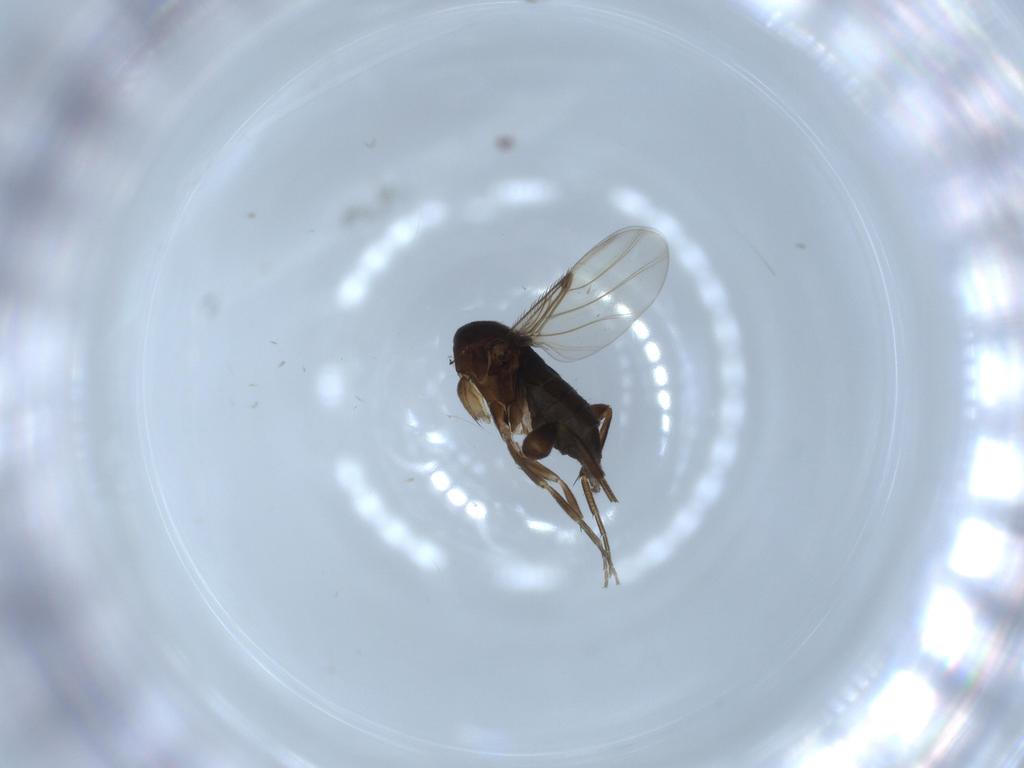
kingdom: Animalia
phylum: Arthropoda
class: Insecta
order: Diptera
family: Phoridae
